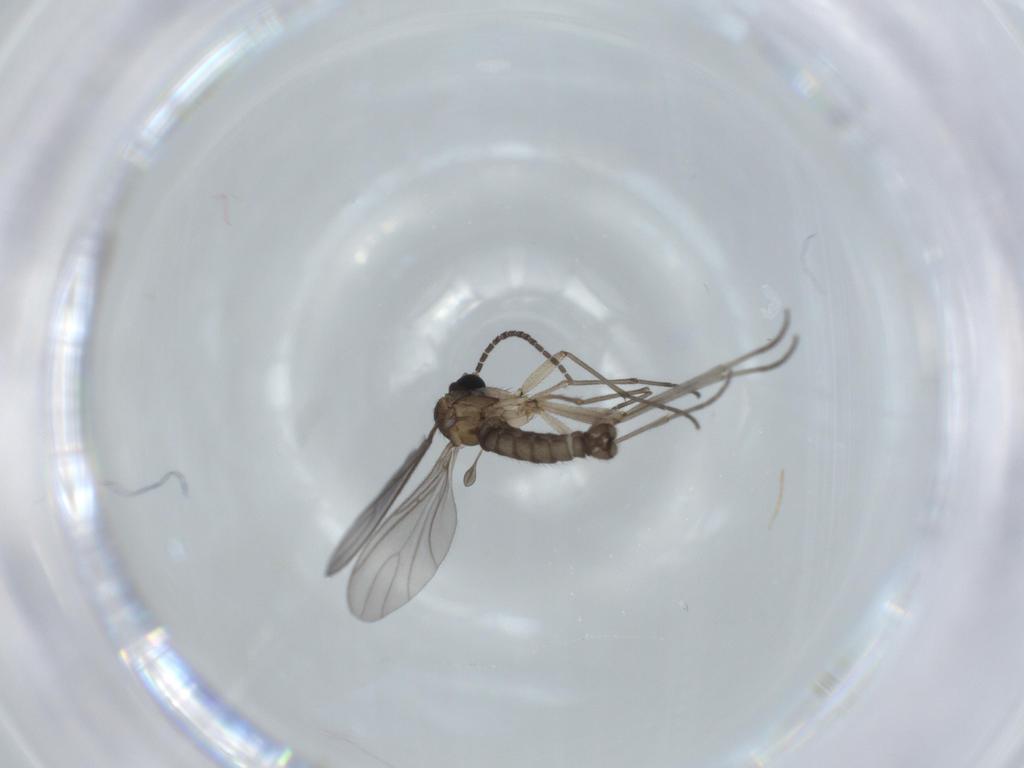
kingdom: Animalia
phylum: Arthropoda
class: Insecta
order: Diptera
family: Sciaridae
